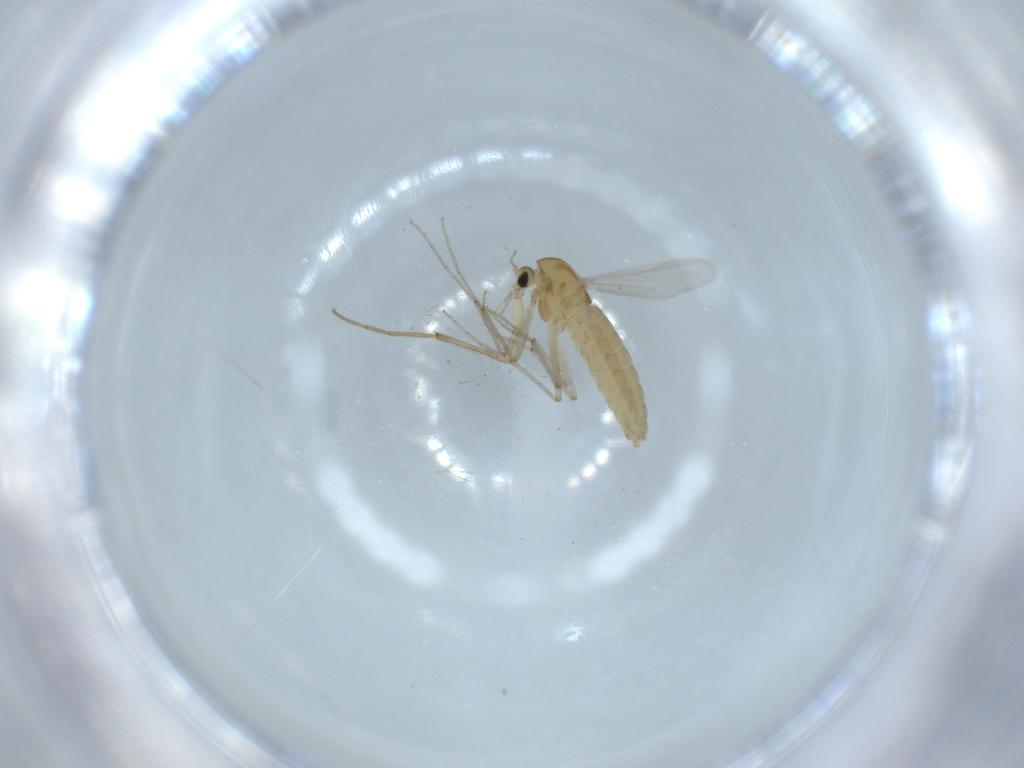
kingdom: Animalia
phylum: Arthropoda
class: Insecta
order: Diptera
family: Chironomidae
